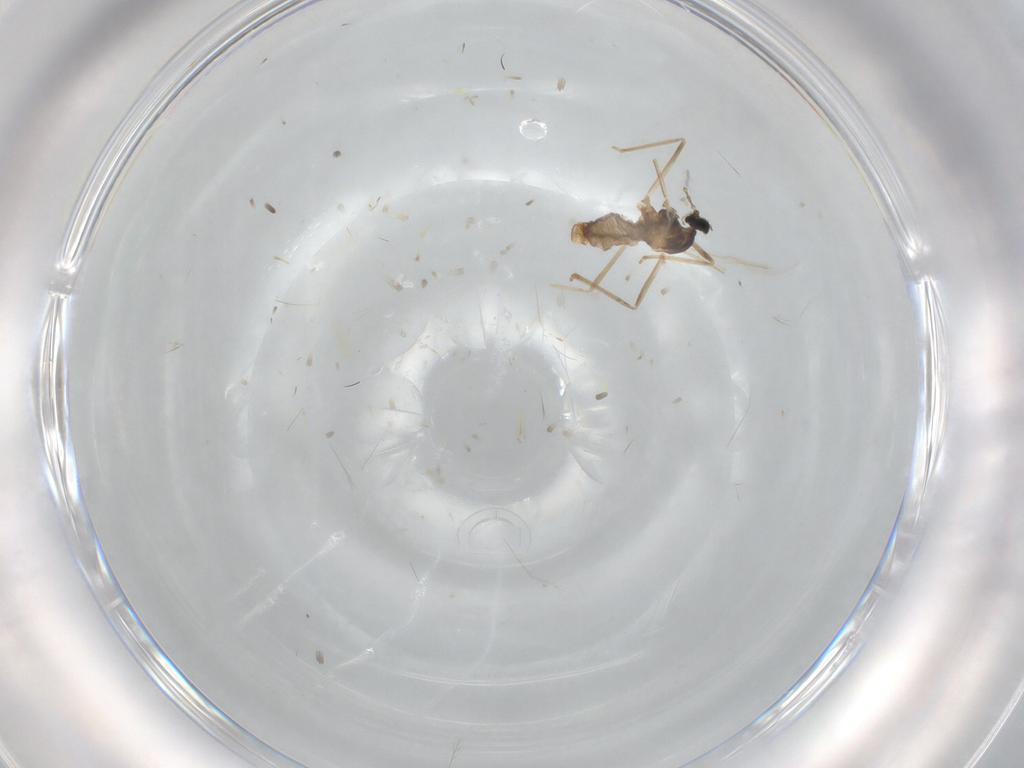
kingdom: Animalia
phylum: Arthropoda
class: Insecta
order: Diptera
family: Cecidomyiidae
